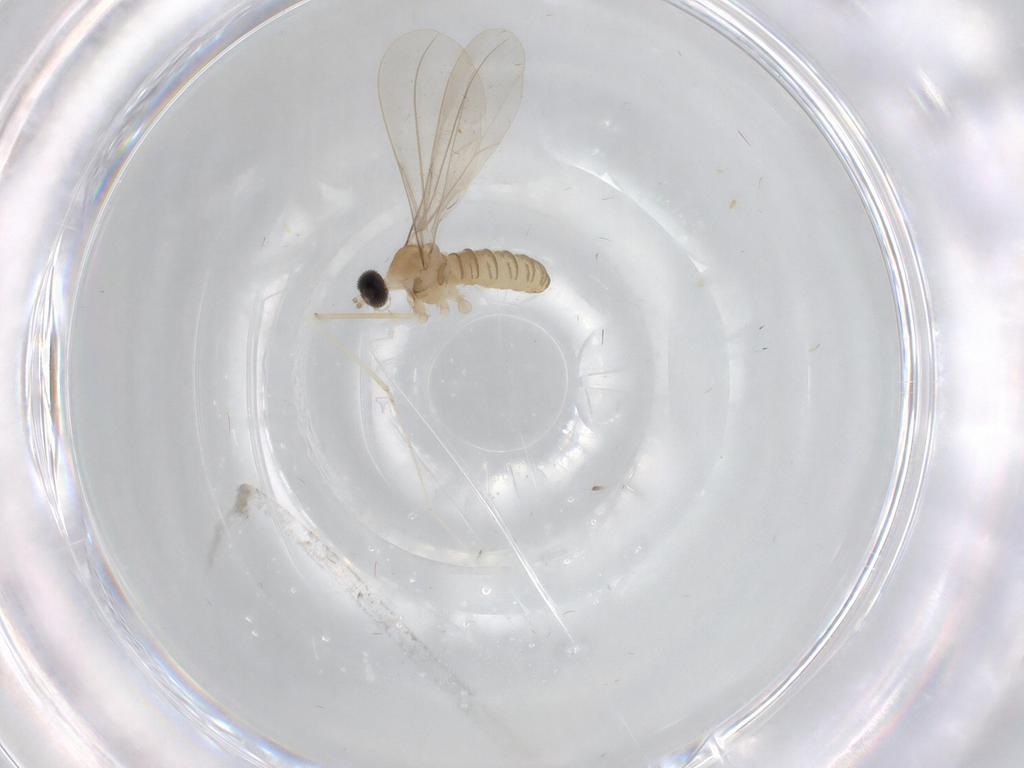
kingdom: Animalia
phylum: Arthropoda
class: Insecta
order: Diptera
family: Cecidomyiidae
